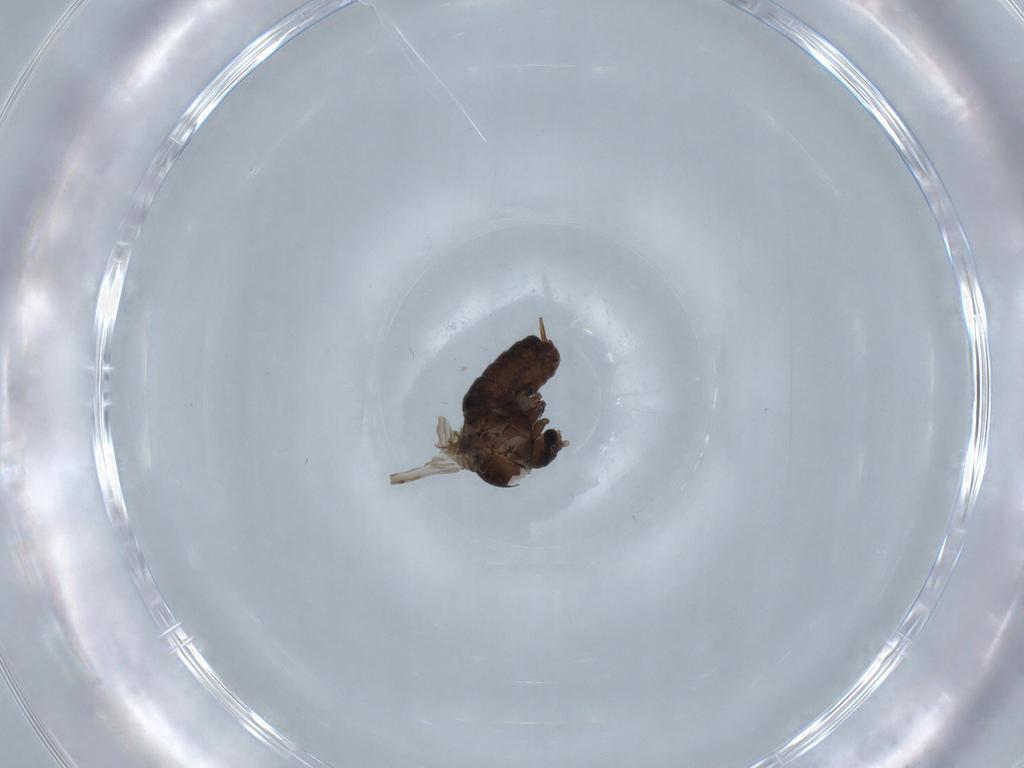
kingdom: Animalia
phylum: Arthropoda
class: Insecta
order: Diptera
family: Psychodidae
